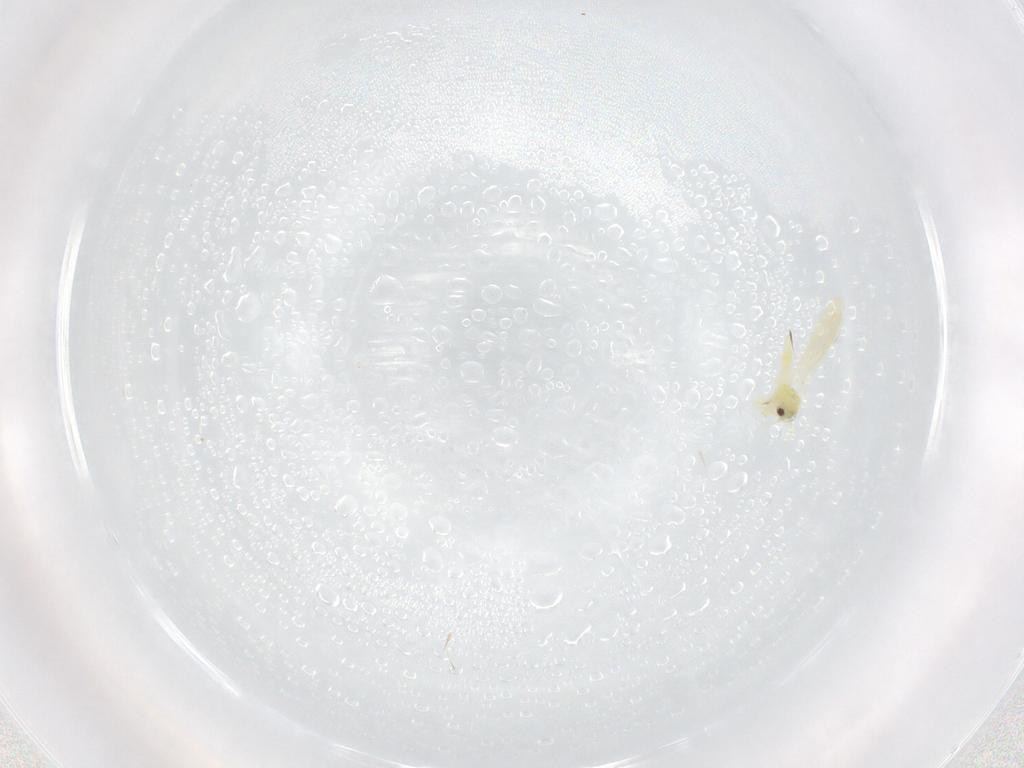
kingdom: Animalia
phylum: Arthropoda
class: Insecta
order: Hemiptera
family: Aleyrodidae
